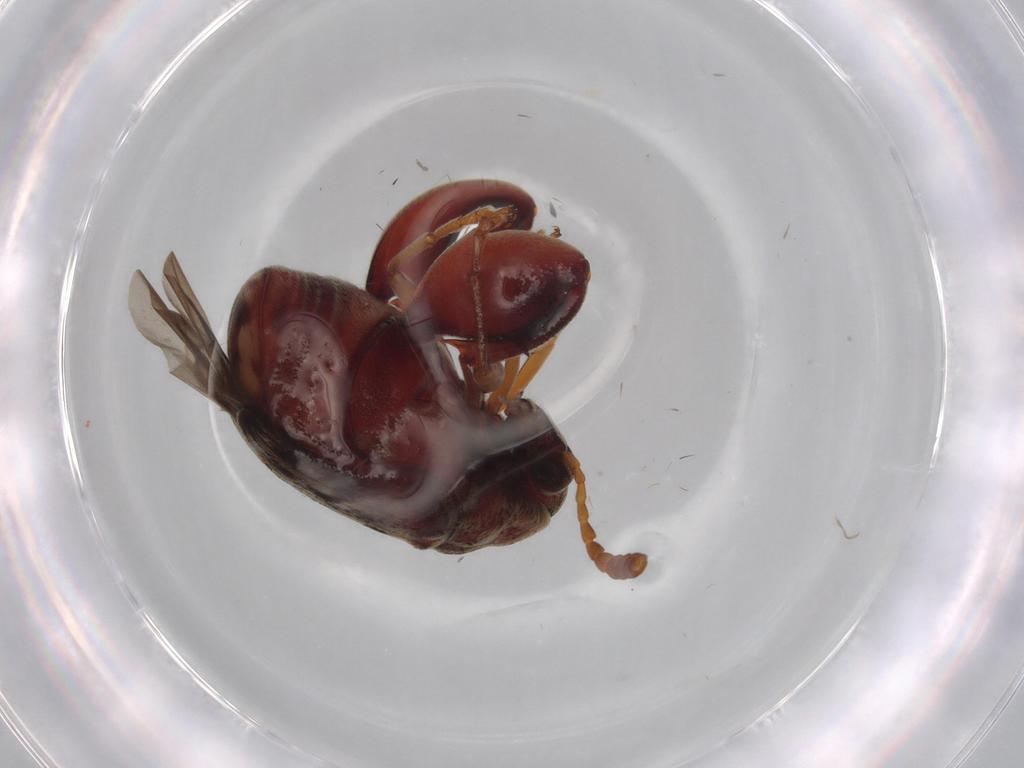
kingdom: Animalia
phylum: Arthropoda
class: Insecta
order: Coleoptera
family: Chrysomelidae
